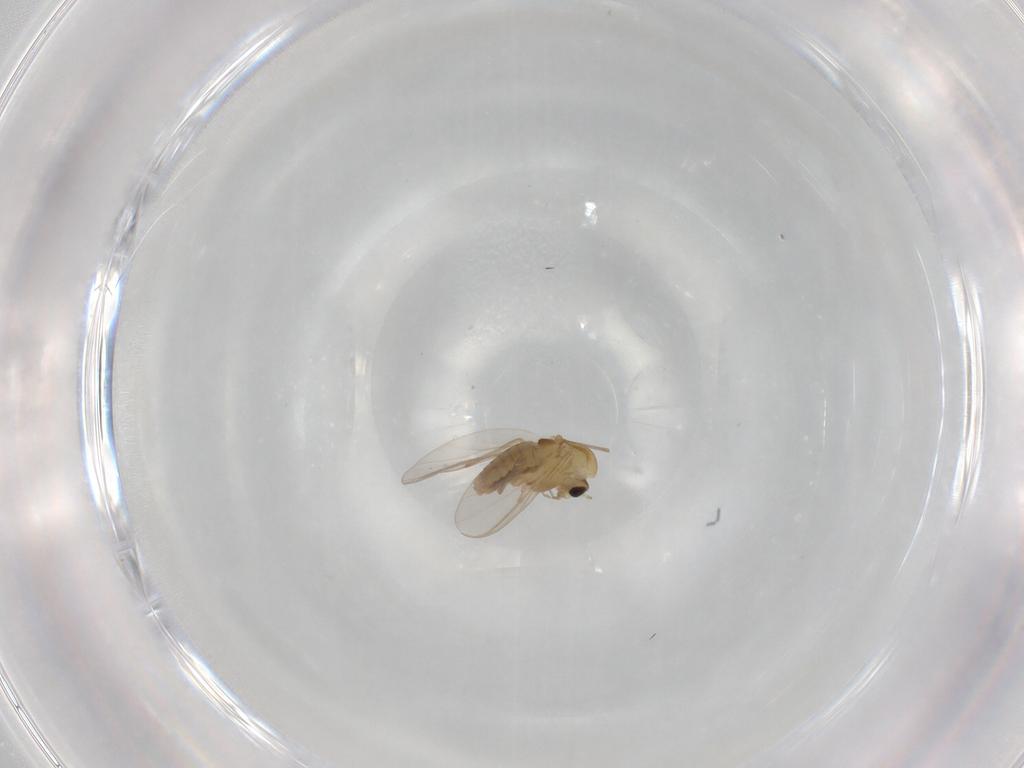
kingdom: Animalia
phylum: Arthropoda
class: Insecta
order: Diptera
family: Chironomidae
